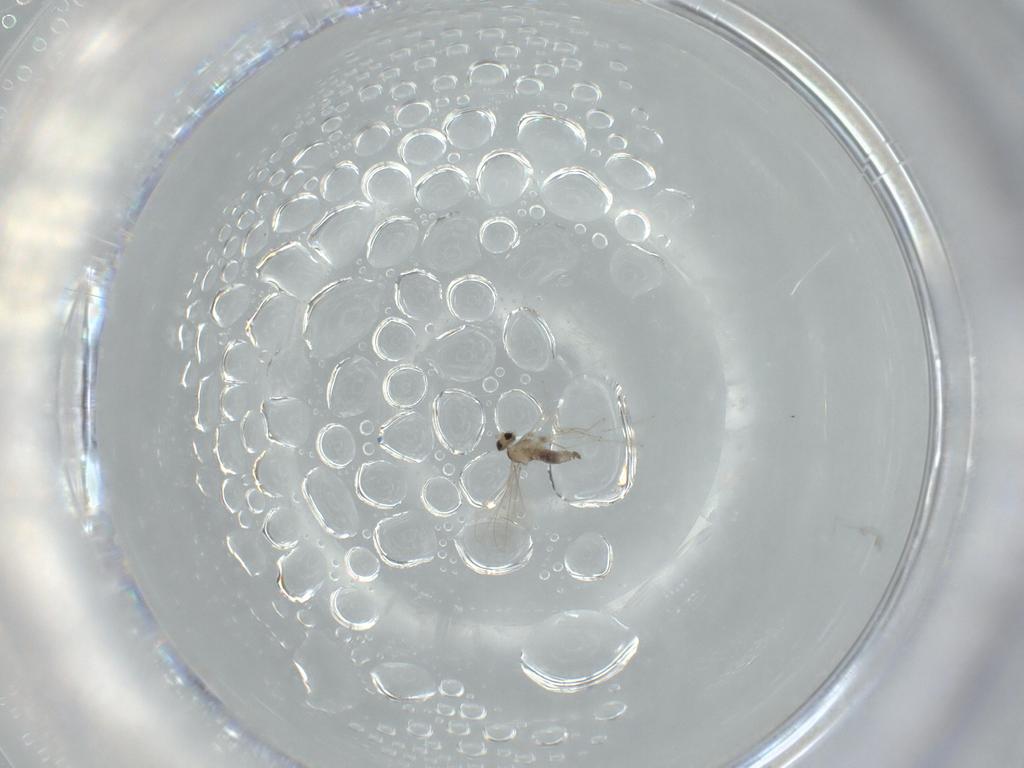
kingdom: Animalia
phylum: Arthropoda
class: Insecta
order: Diptera
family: Cecidomyiidae
